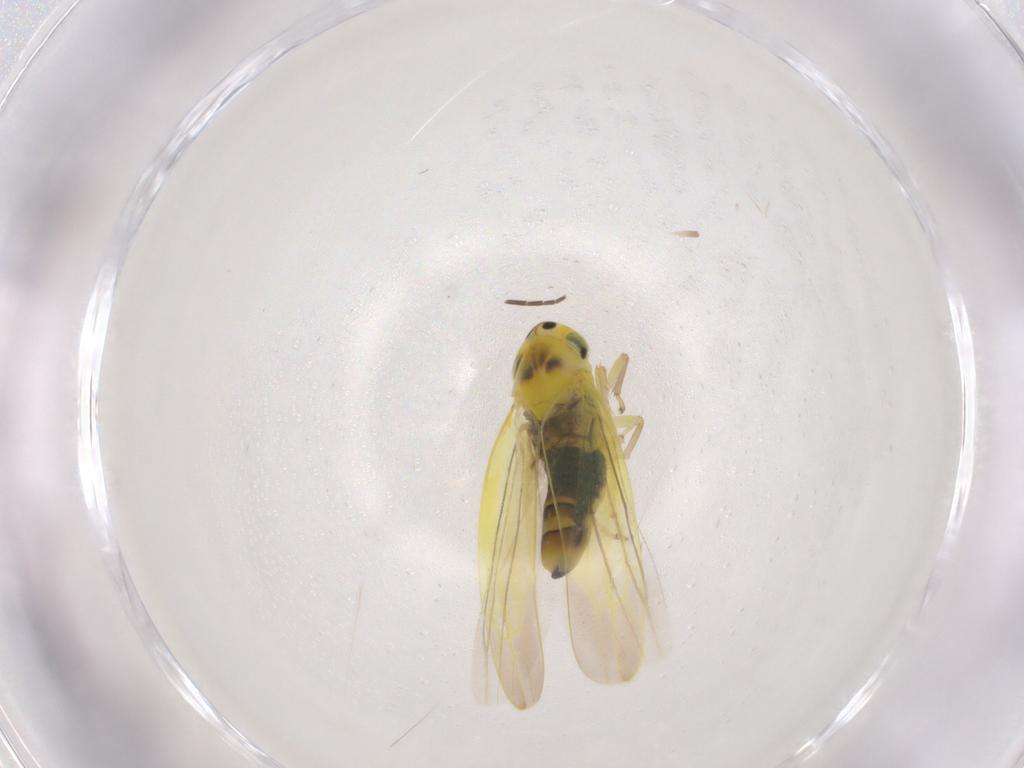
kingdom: Animalia
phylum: Arthropoda
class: Insecta
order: Hemiptera
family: Cicadellidae
